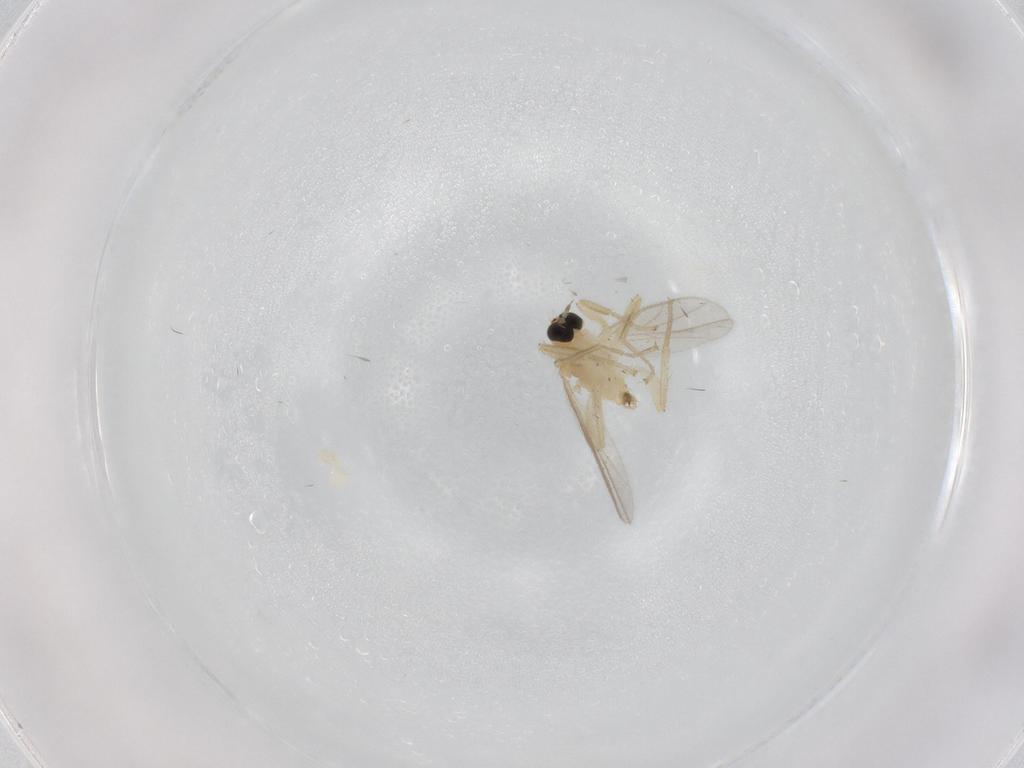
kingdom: Animalia
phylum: Arthropoda
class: Insecta
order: Diptera
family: Hybotidae
